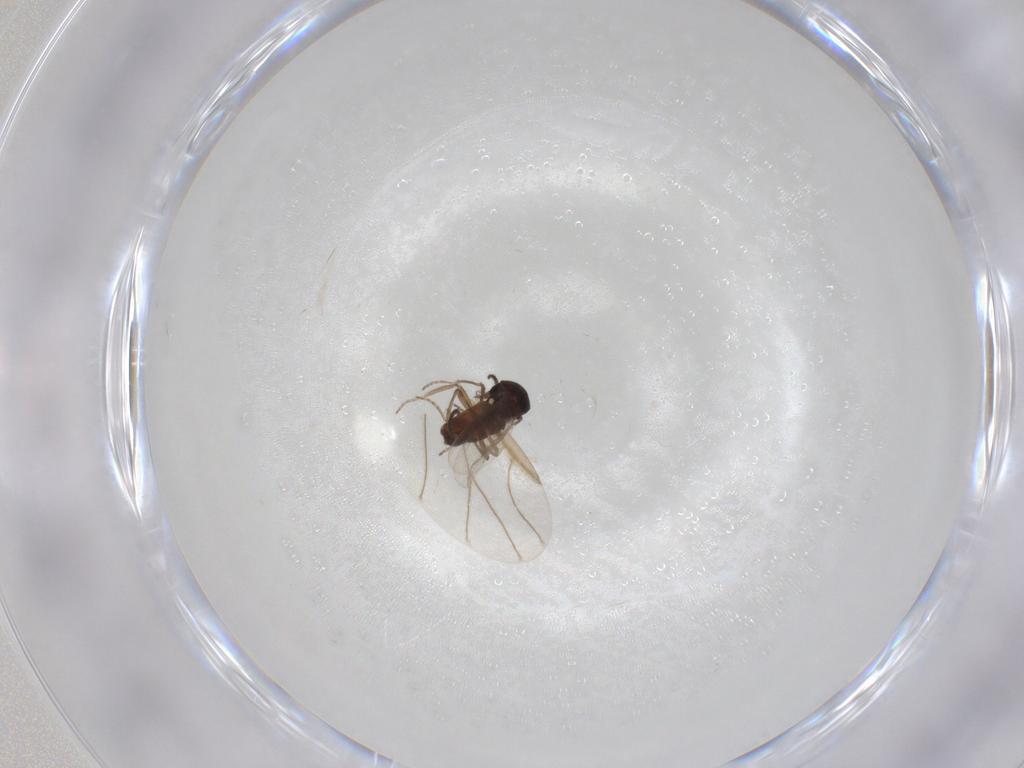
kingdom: Animalia
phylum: Arthropoda
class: Insecta
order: Diptera
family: Ceratopogonidae
